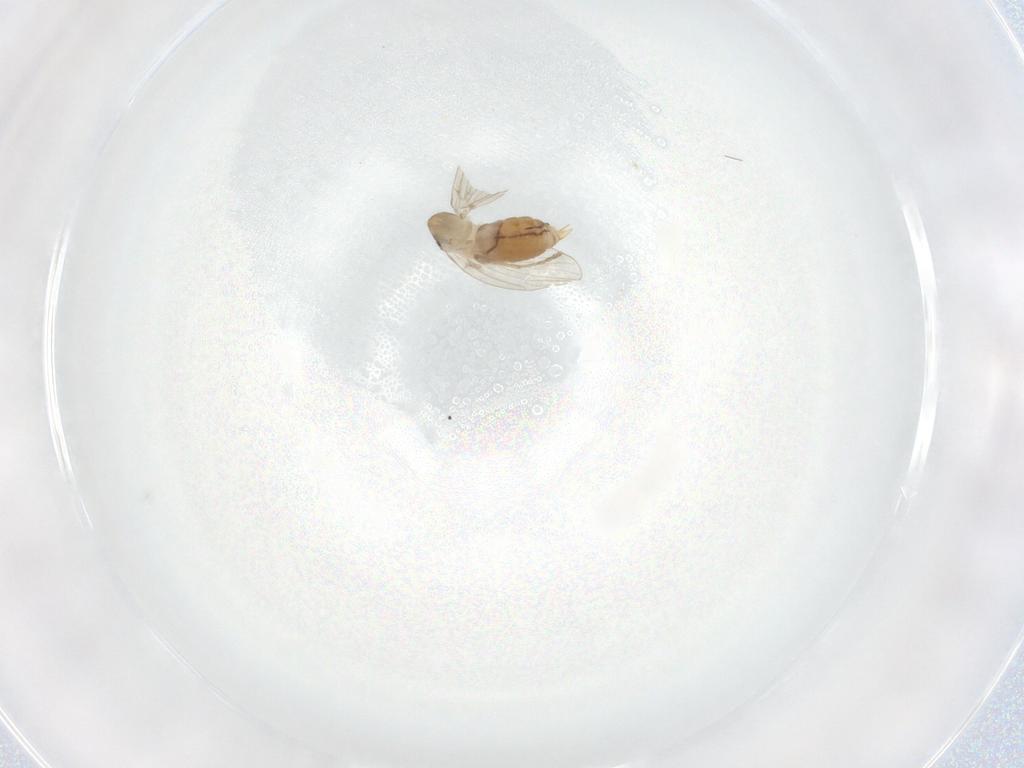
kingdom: Animalia
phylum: Arthropoda
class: Insecta
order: Diptera
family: Psychodidae
